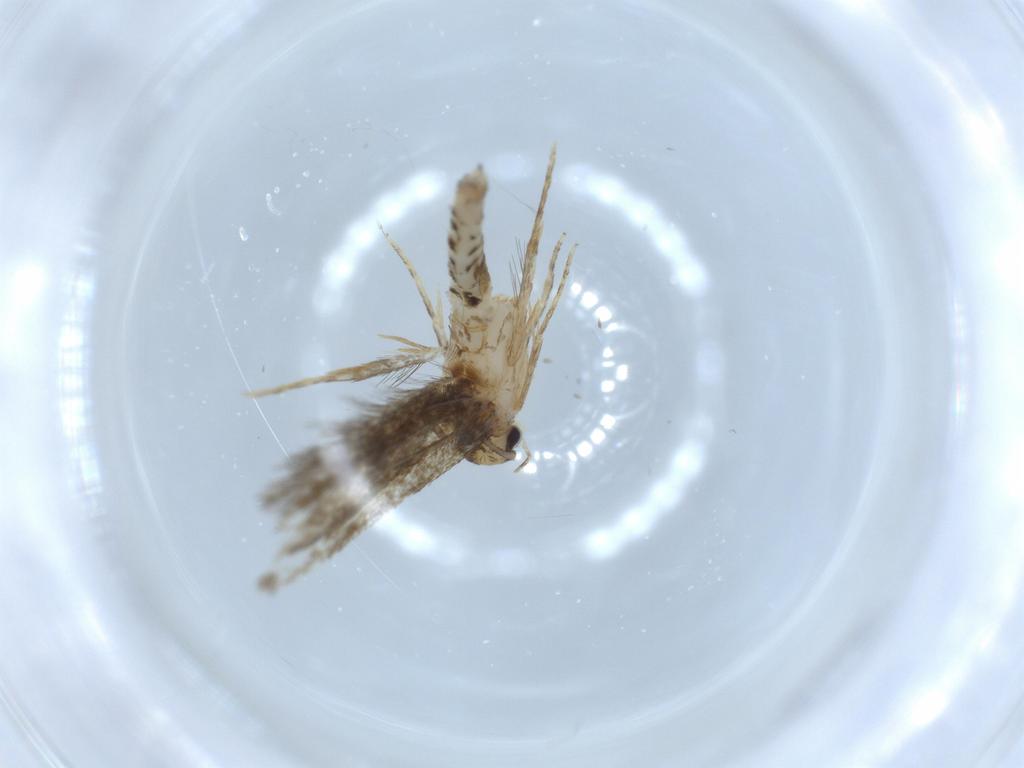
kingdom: Animalia
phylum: Arthropoda
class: Insecta
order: Lepidoptera
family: Tineidae
